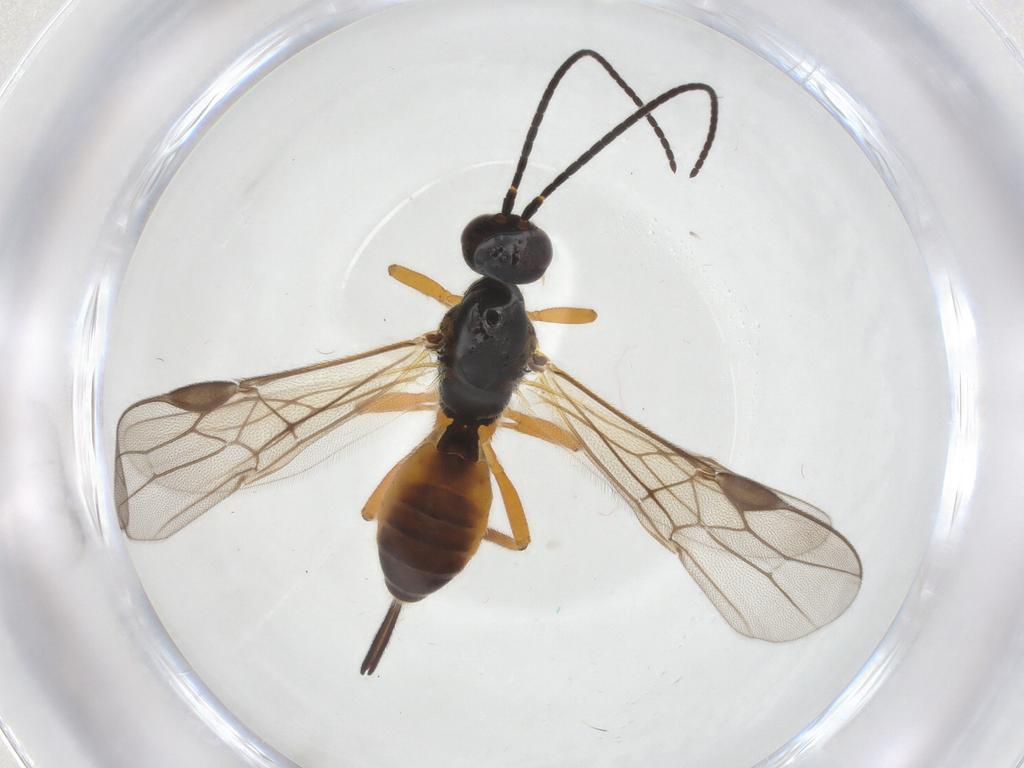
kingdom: Animalia
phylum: Arthropoda
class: Insecta
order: Hymenoptera
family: Braconidae
